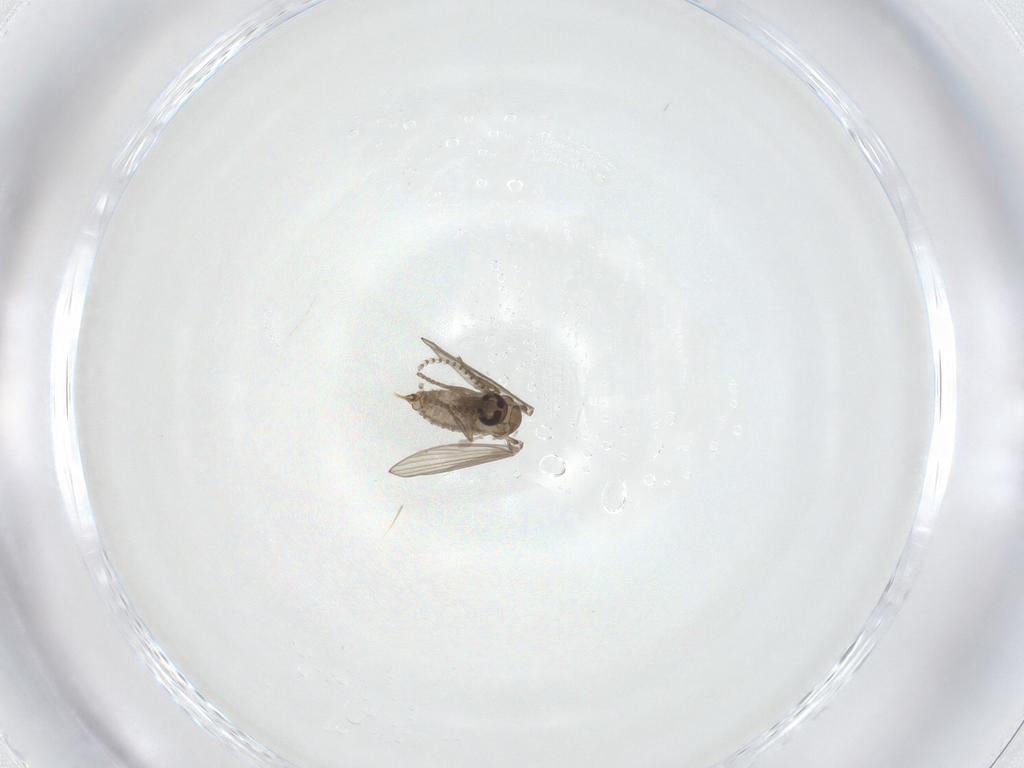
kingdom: Animalia
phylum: Arthropoda
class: Insecta
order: Diptera
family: Psychodidae
